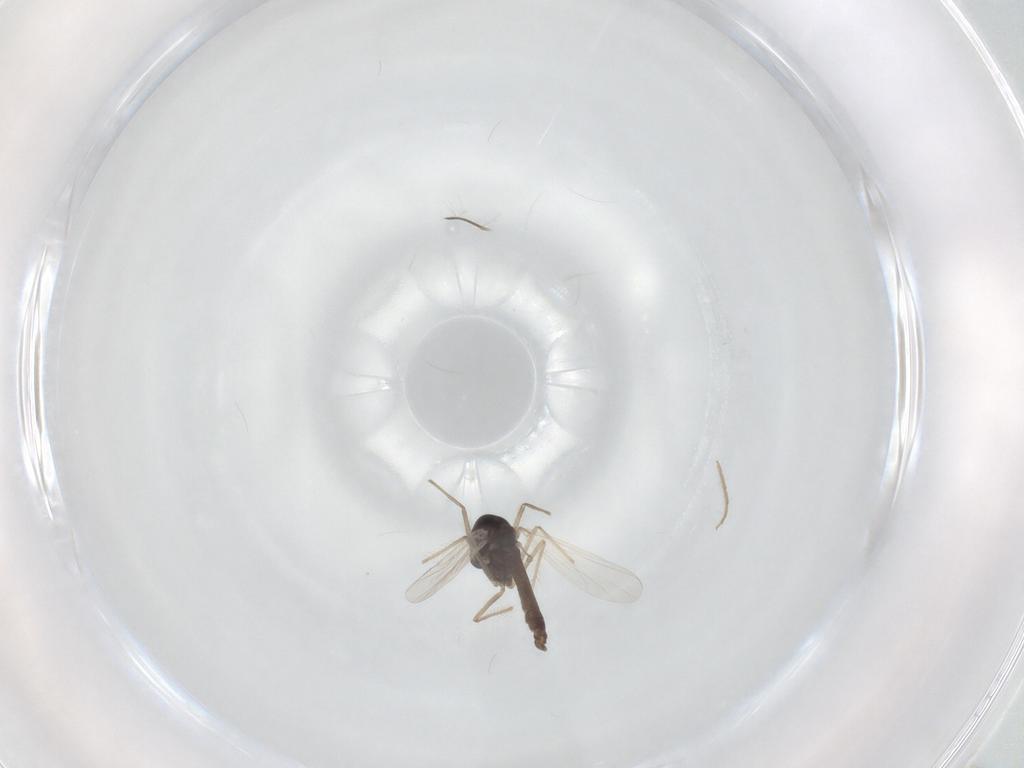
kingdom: Animalia
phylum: Arthropoda
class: Insecta
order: Diptera
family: Chironomidae
